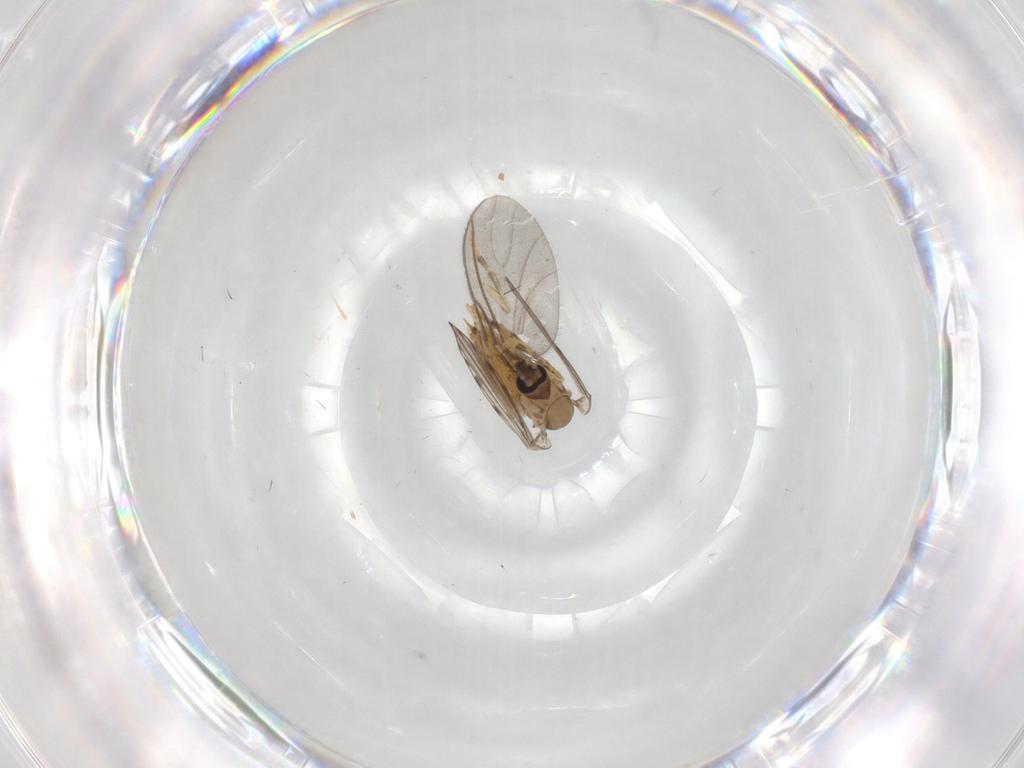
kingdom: Animalia
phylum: Arthropoda
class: Insecta
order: Diptera
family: Sciaridae
